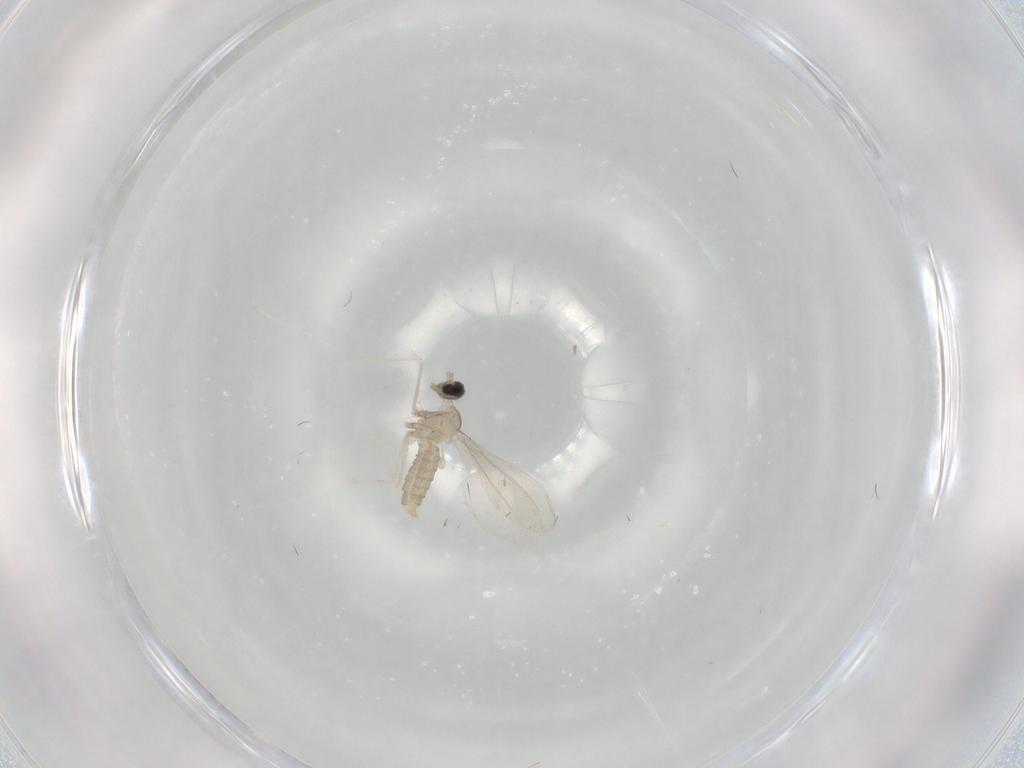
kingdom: Animalia
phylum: Arthropoda
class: Insecta
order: Diptera
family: Cecidomyiidae
